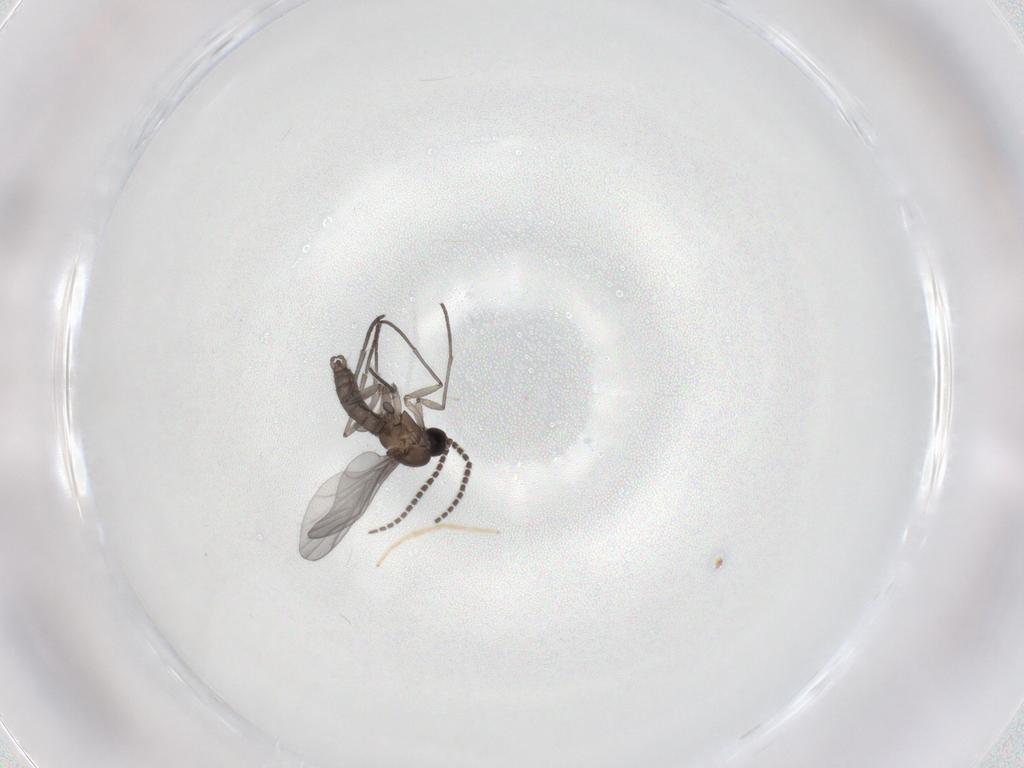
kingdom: Animalia
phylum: Arthropoda
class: Insecta
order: Diptera
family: Calliphoridae
